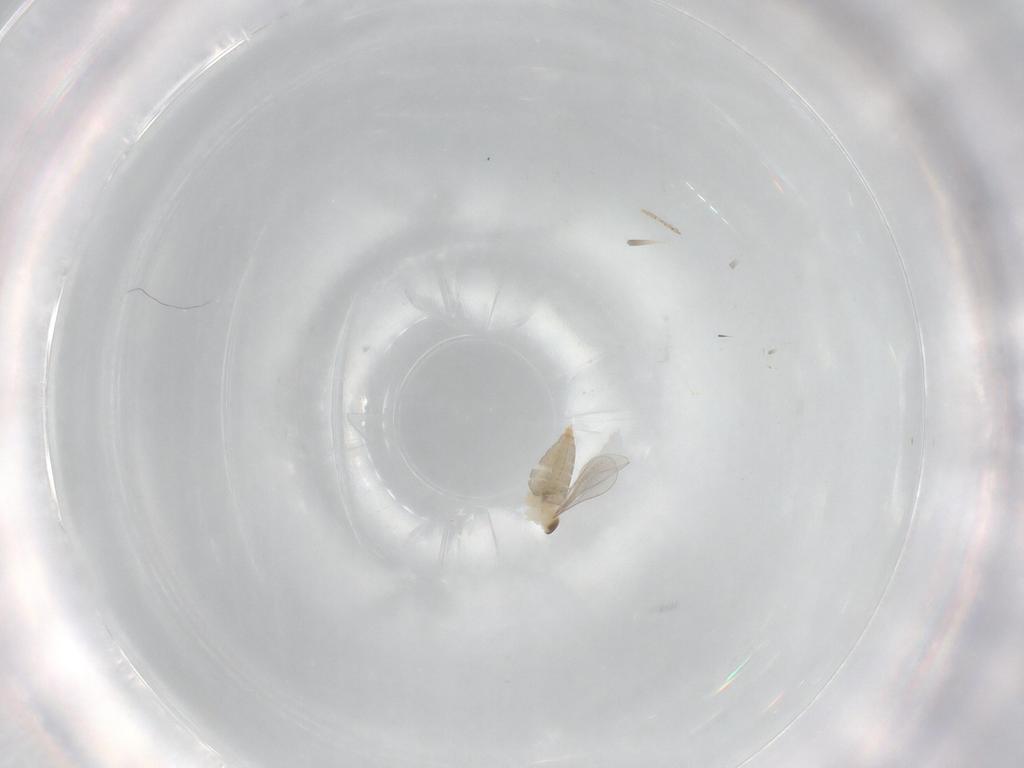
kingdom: Animalia
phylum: Arthropoda
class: Insecta
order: Diptera
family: Cecidomyiidae
